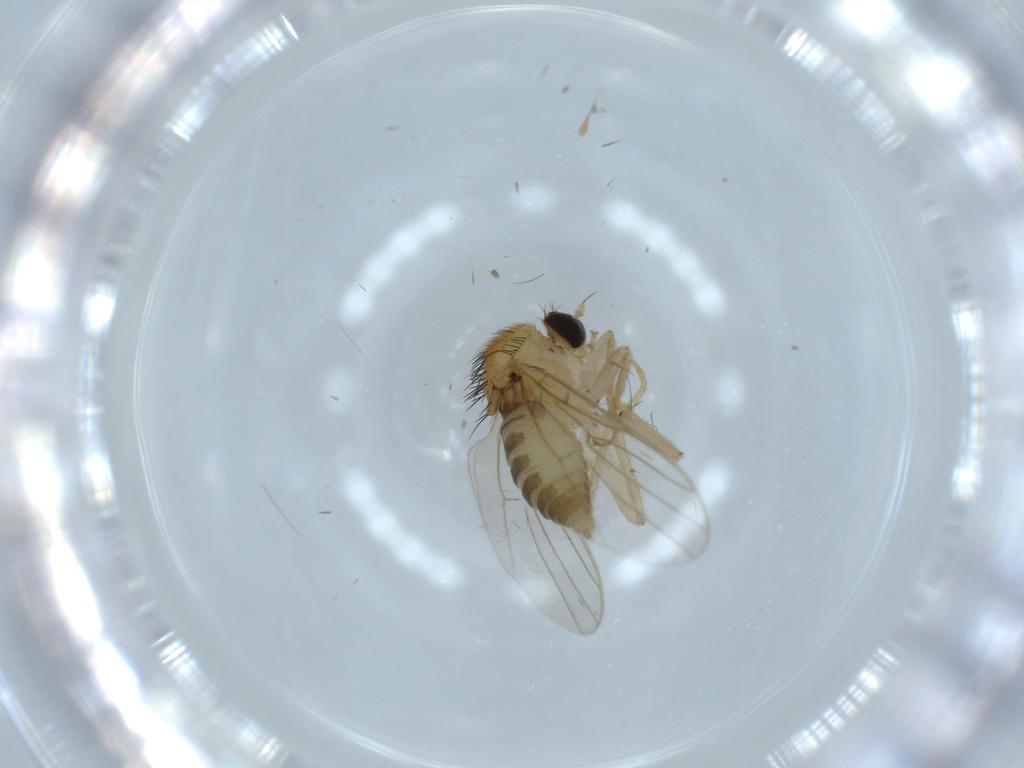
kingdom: Animalia
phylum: Arthropoda
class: Insecta
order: Diptera
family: Hybotidae
